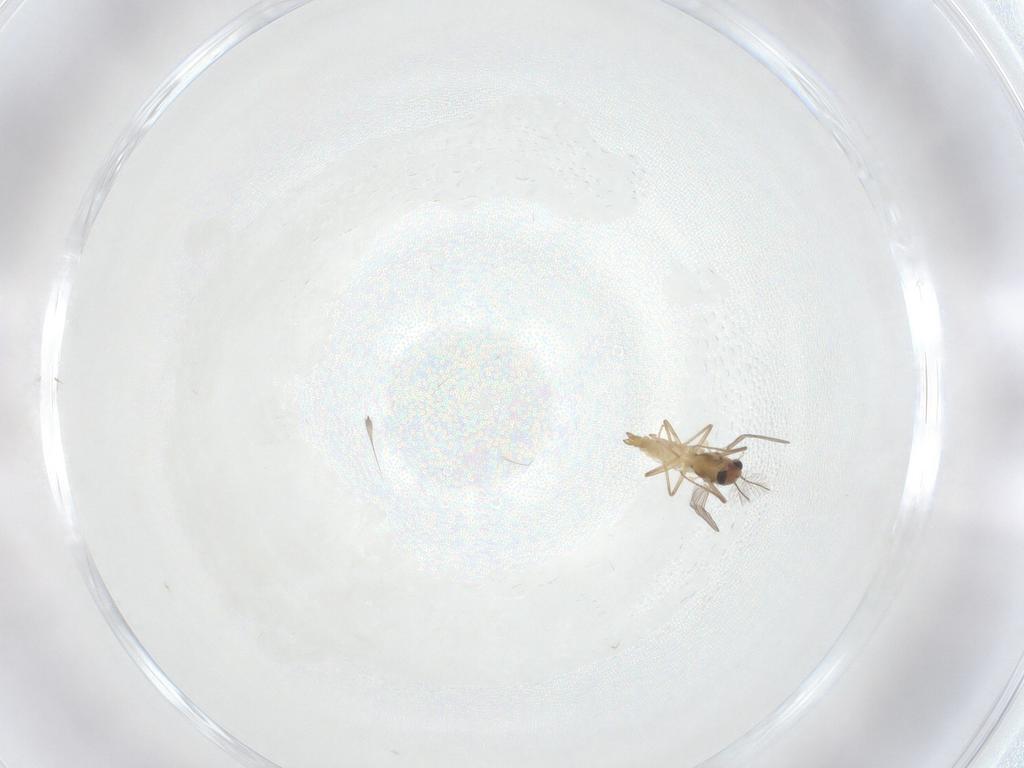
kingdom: Animalia
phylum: Arthropoda
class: Insecta
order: Diptera
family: Chironomidae
